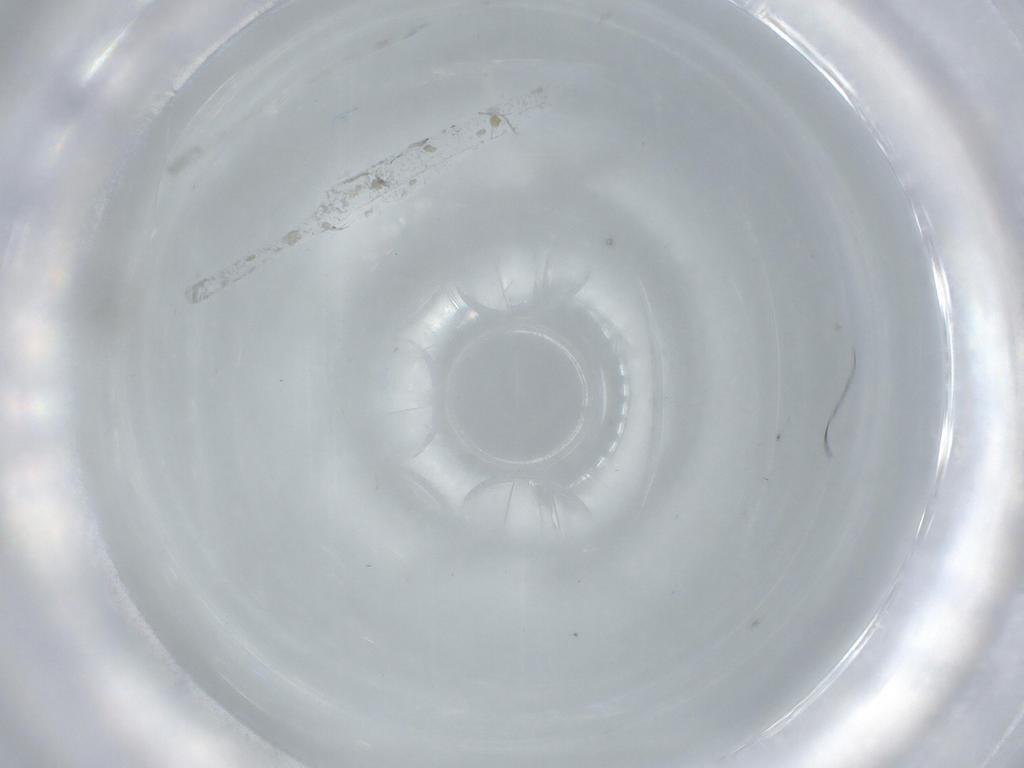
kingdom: Animalia
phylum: Arthropoda
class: Insecta
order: Diptera
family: Cecidomyiidae
